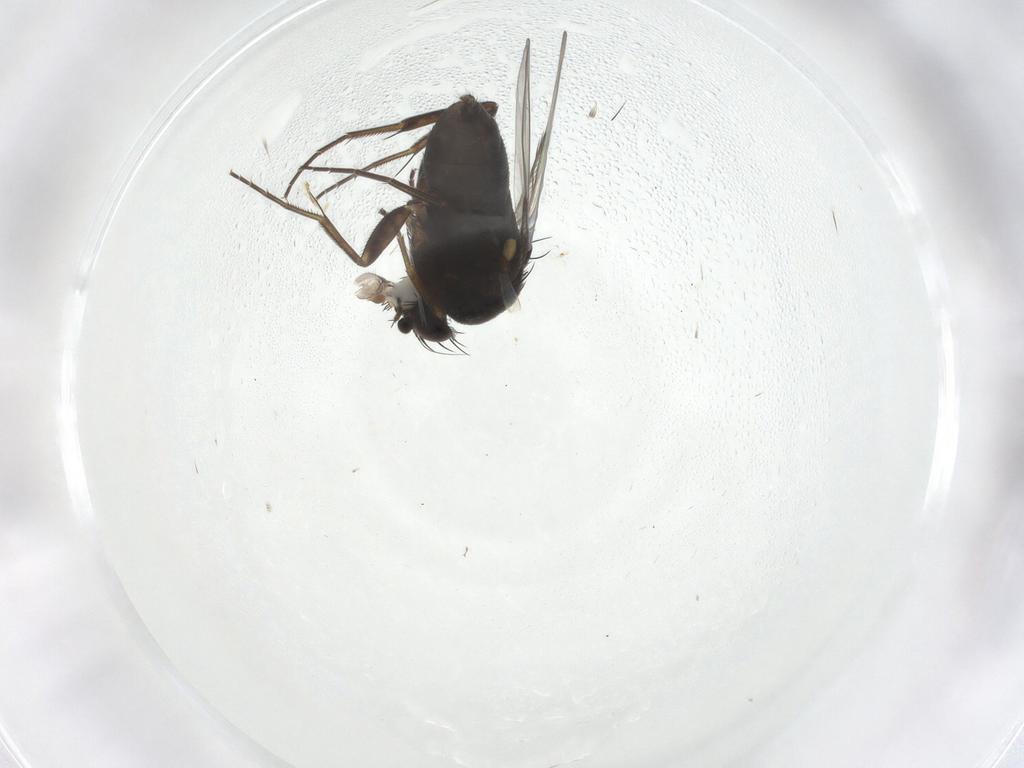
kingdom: Animalia
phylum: Arthropoda
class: Insecta
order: Diptera
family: Phoridae
